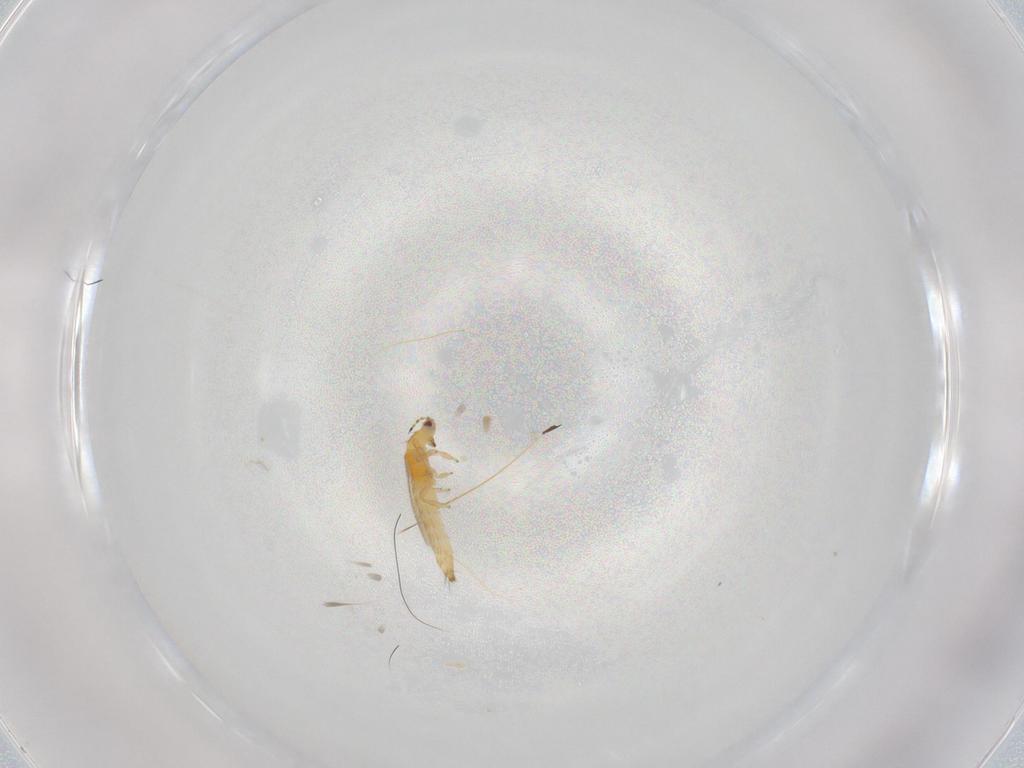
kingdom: Animalia
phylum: Arthropoda
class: Insecta
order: Thysanoptera
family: Thripidae
